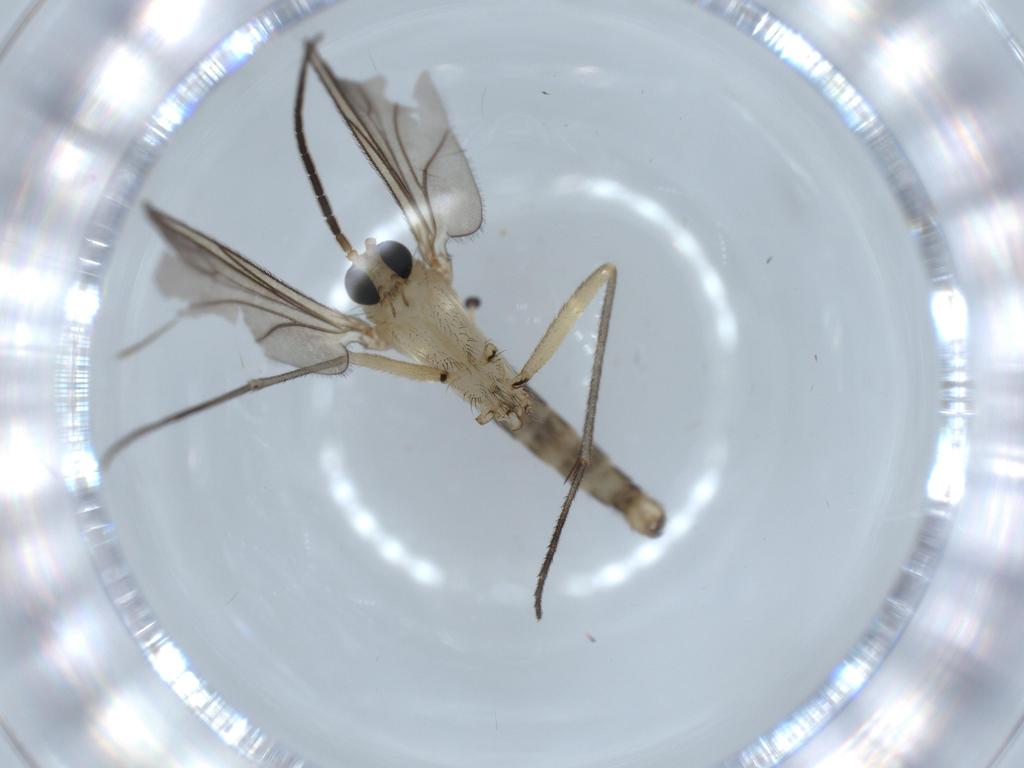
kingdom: Animalia
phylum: Arthropoda
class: Insecta
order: Diptera
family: Sciaridae
